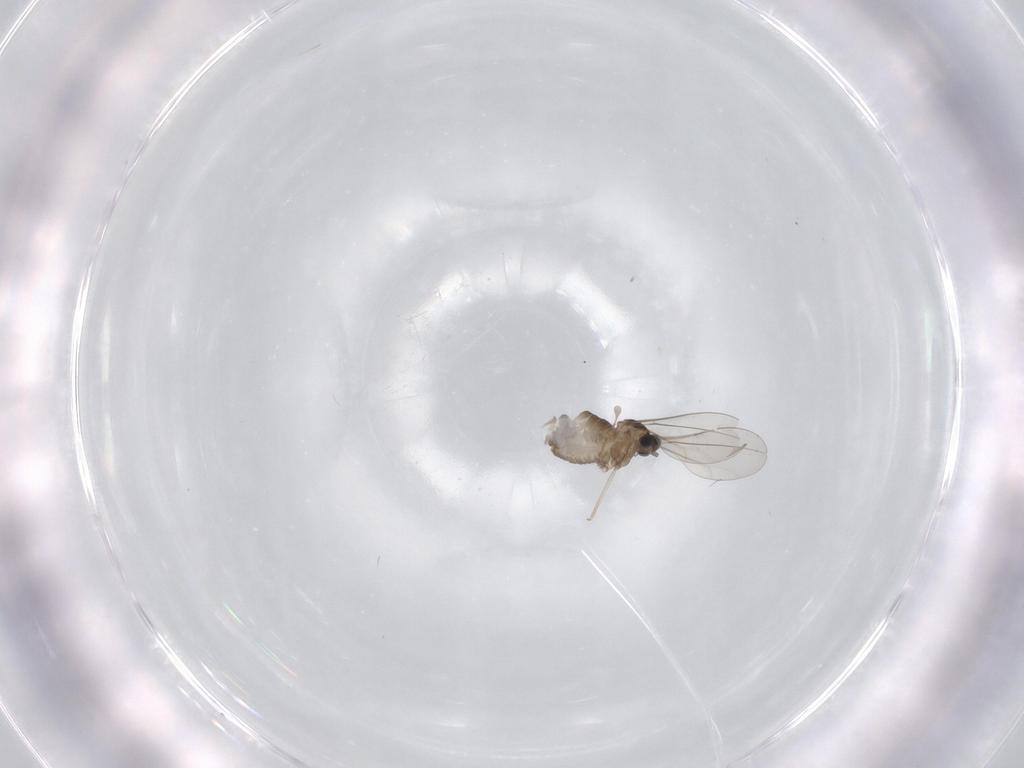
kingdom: Animalia
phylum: Arthropoda
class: Insecta
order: Diptera
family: Cecidomyiidae
